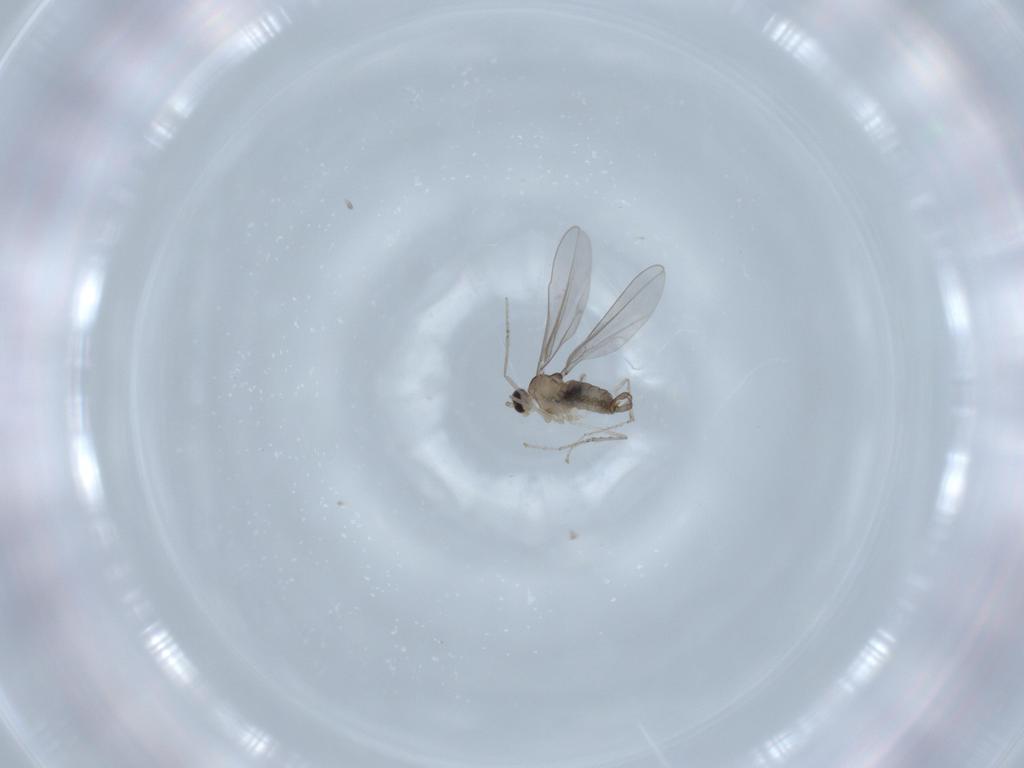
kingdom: Animalia
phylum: Arthropoda
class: Insecta
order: Diptera
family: Cecidomyiidae
